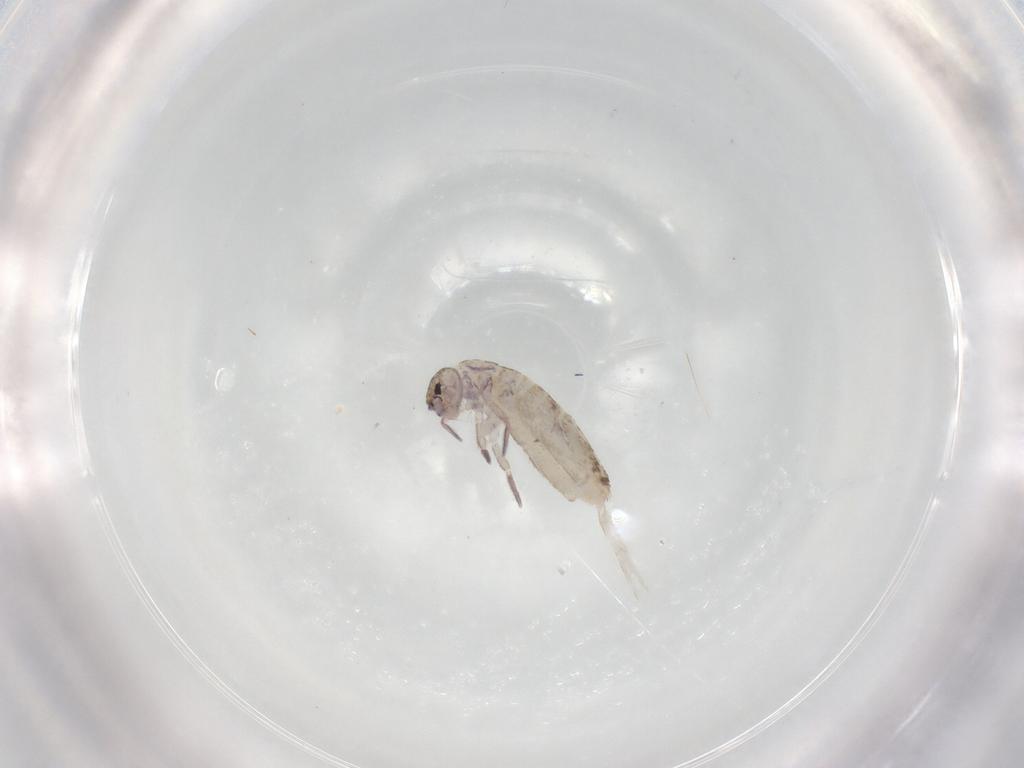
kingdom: Animalia
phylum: Arthropoda
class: Collembola
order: Entomobryomorpha
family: Entomobryidae
